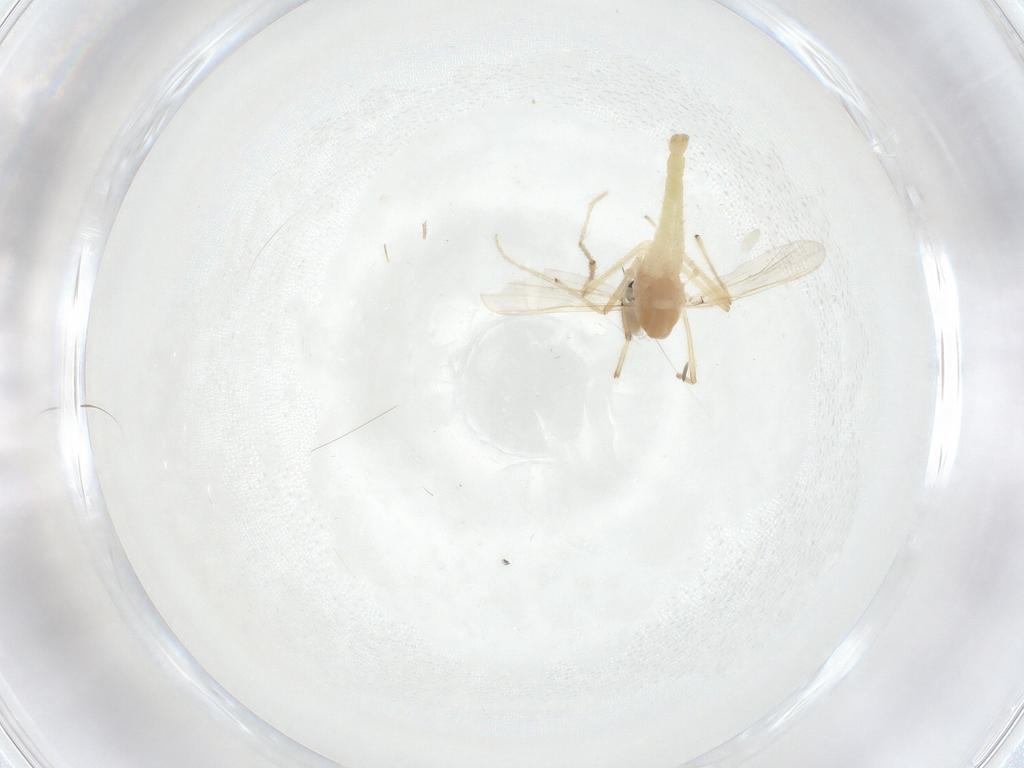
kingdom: Animalia
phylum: Arthropoda
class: Insecta
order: Diptera
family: Chironomidae
